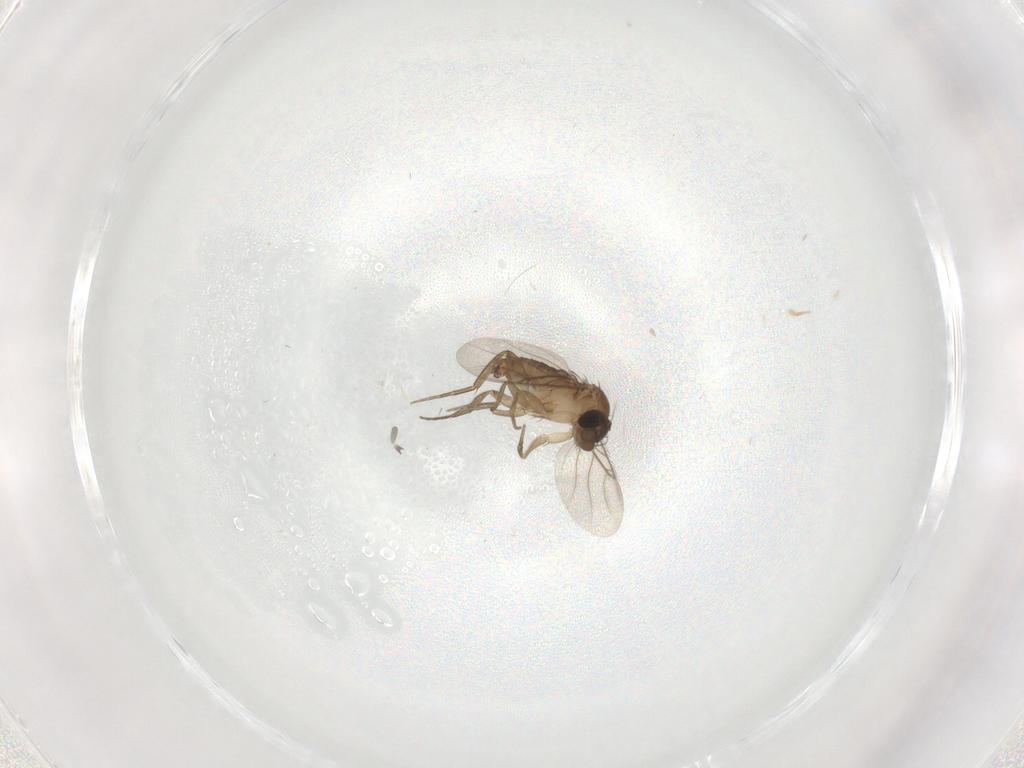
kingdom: Animalia
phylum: Arthropoda
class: Insecta
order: Diptera
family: Phoridae
